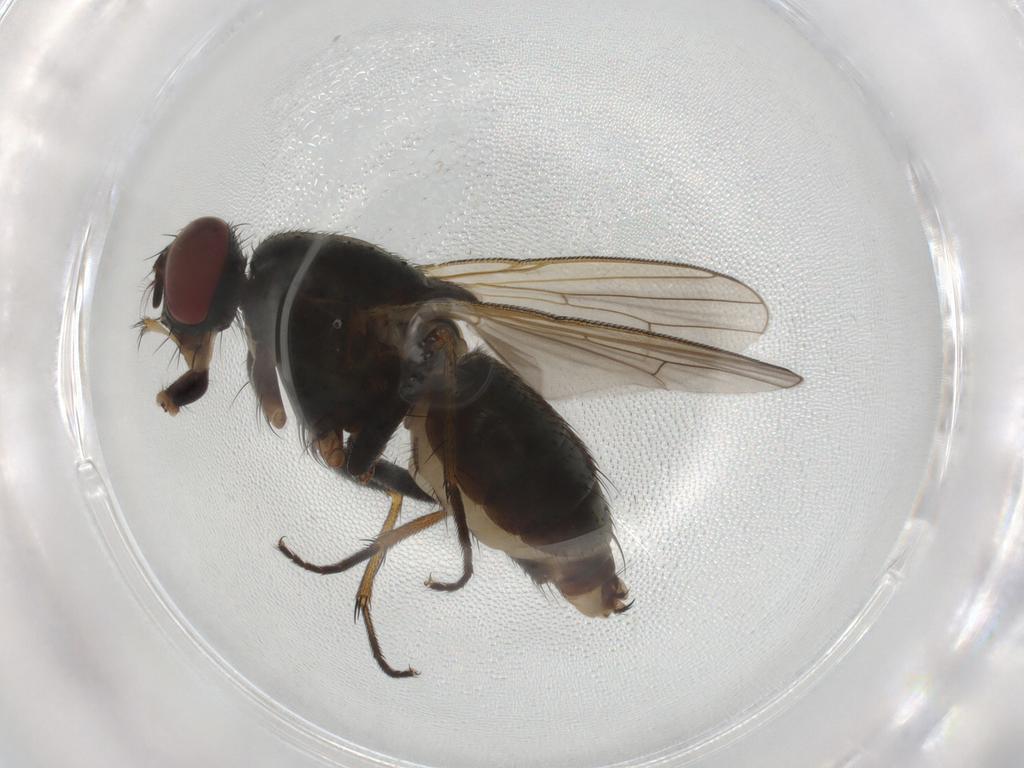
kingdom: Animalia
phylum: Arthropoda
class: Insecta
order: Diptera
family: Muscidae
